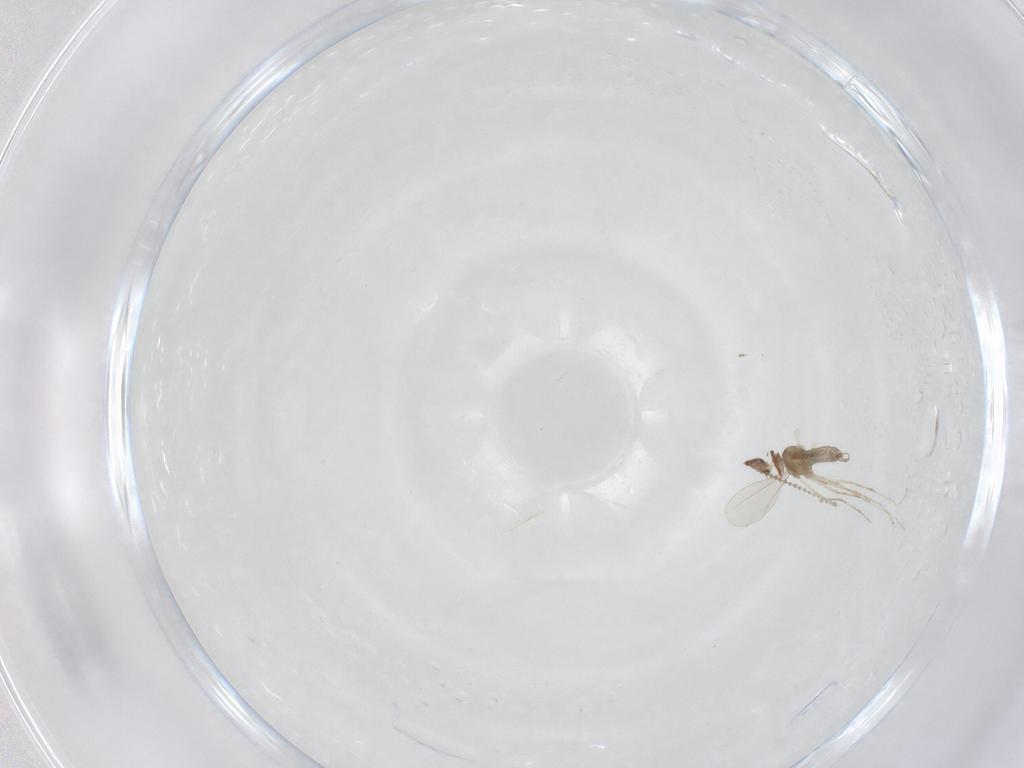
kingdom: Animalia
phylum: Arthropoda
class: Insecta
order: Diptera
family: Cecidomyiidae
